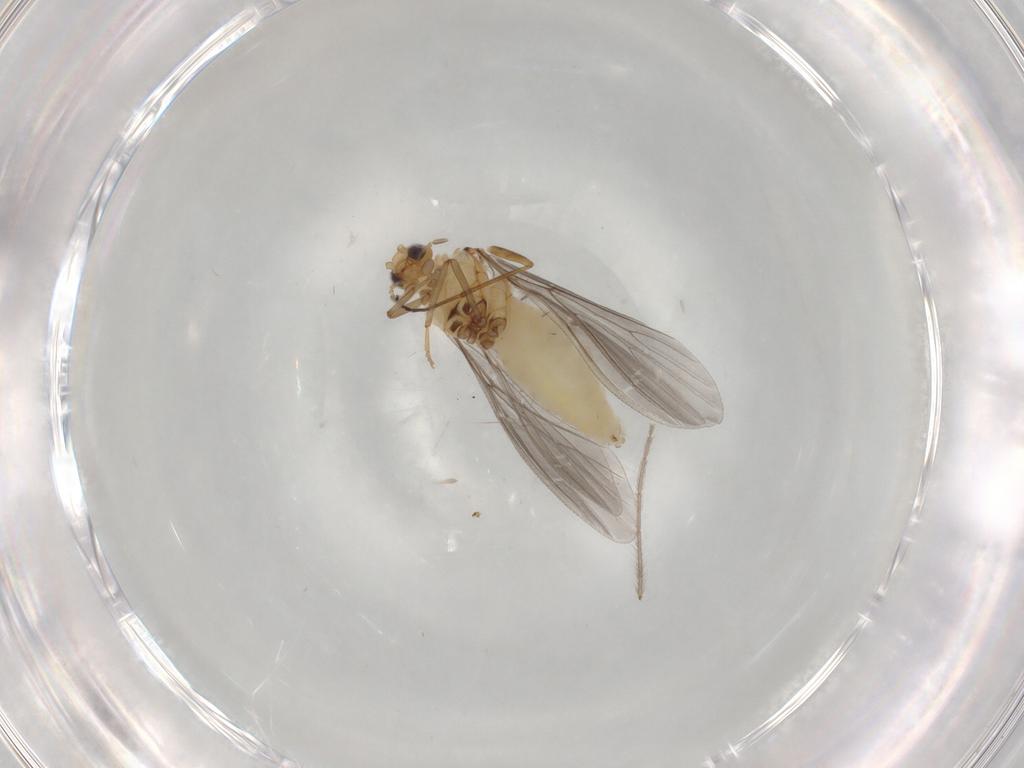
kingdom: Animalia
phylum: Arthropoda
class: Insecta
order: Neuroptera
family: Coniopterygidae
